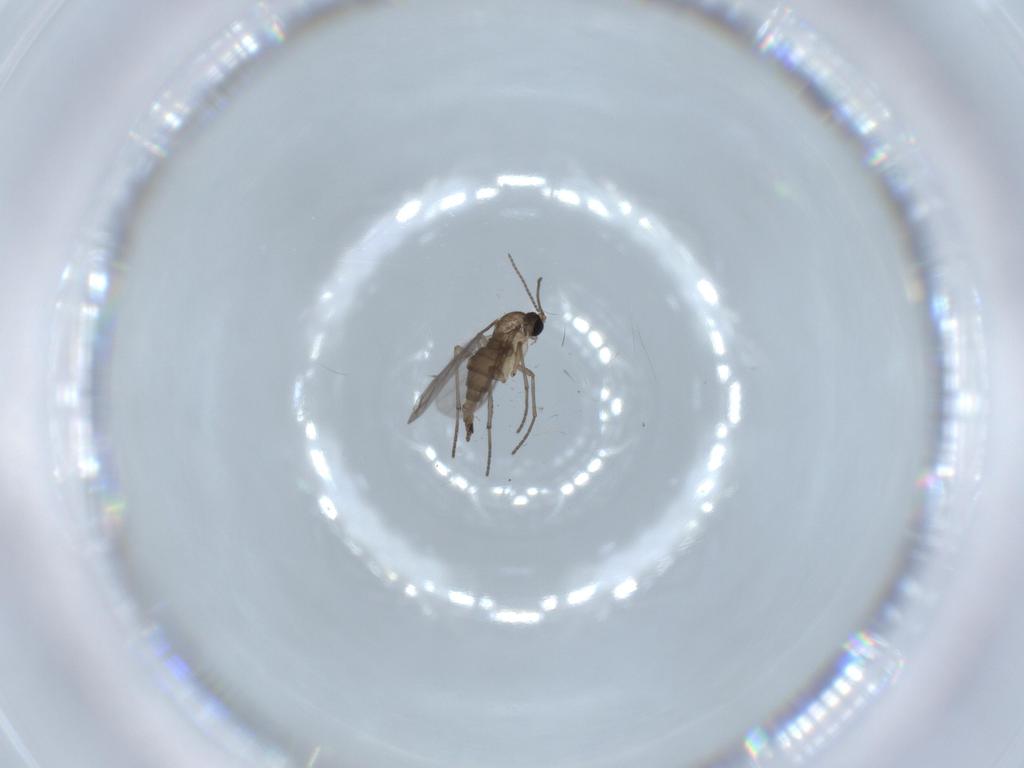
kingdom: Animalia
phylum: Arthropoda
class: Insecta
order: Diptera
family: Sciaridae
